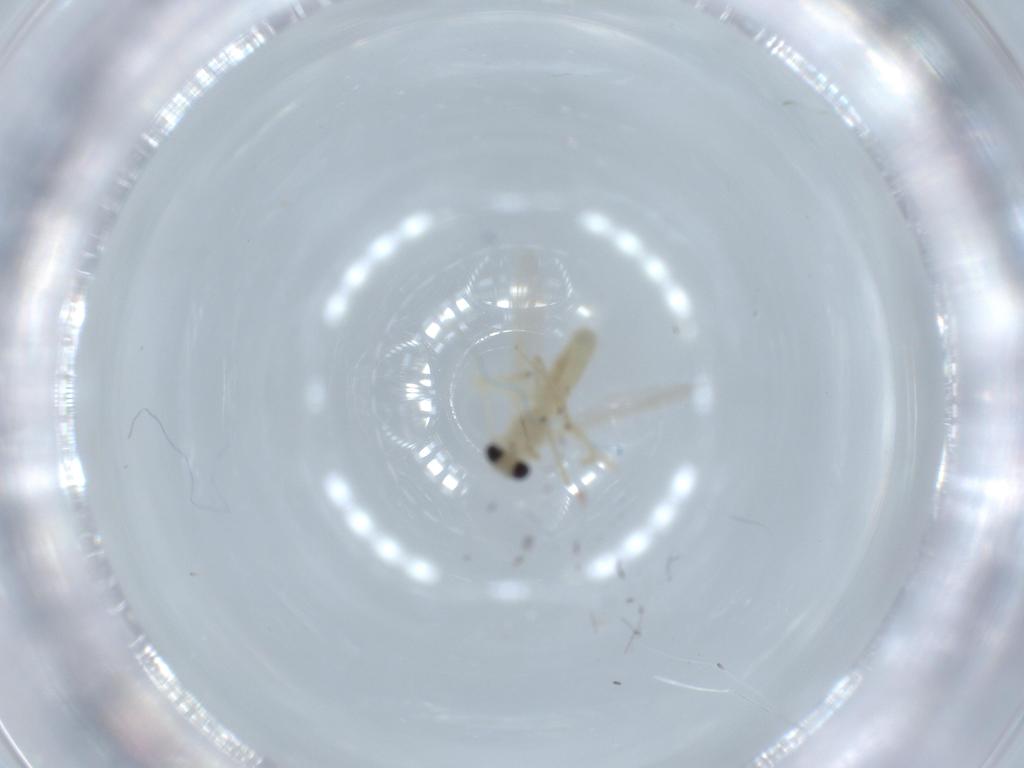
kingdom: Animalia
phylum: Arthropoda
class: Insecta
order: Diptera
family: Chironomidae
